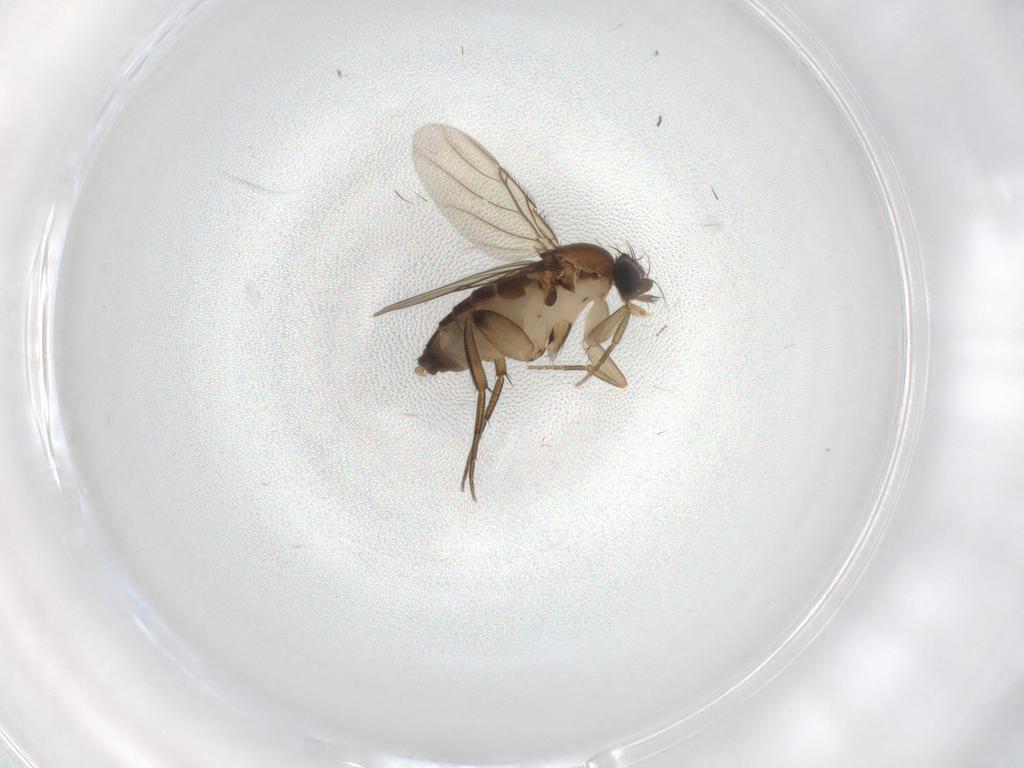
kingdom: Animalia
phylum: Arthropoda
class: Insecta
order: Diptera
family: Phoridae
